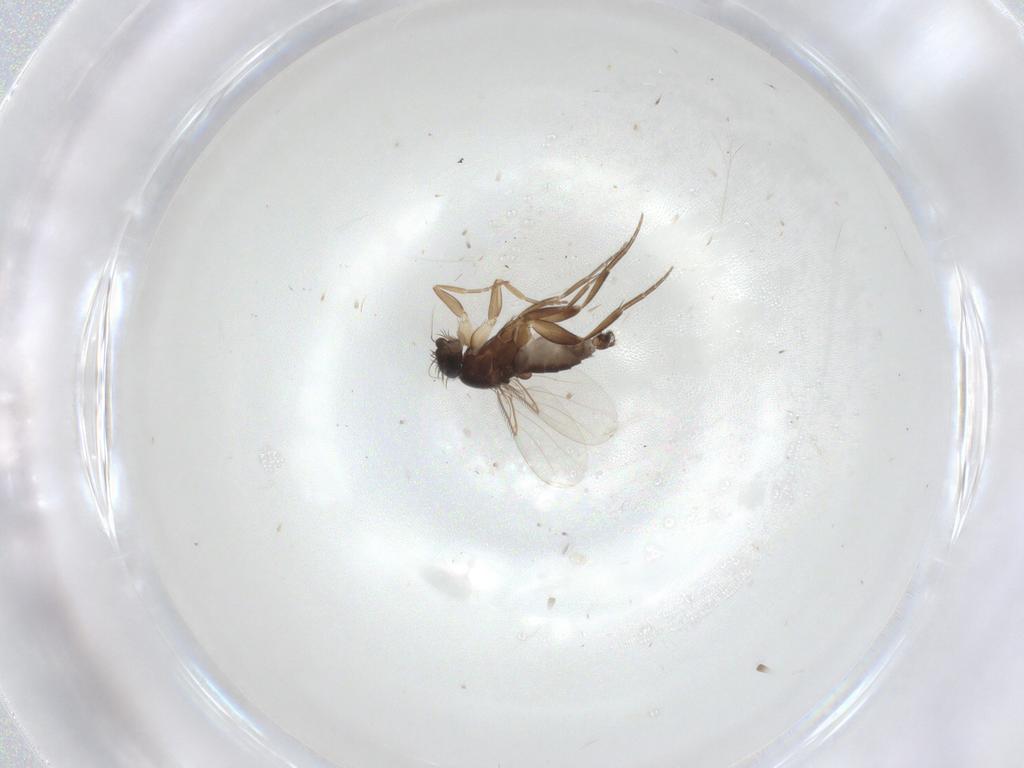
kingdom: Animalia
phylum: Arthropoda
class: Insecta
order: Diptera
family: Phoridae
